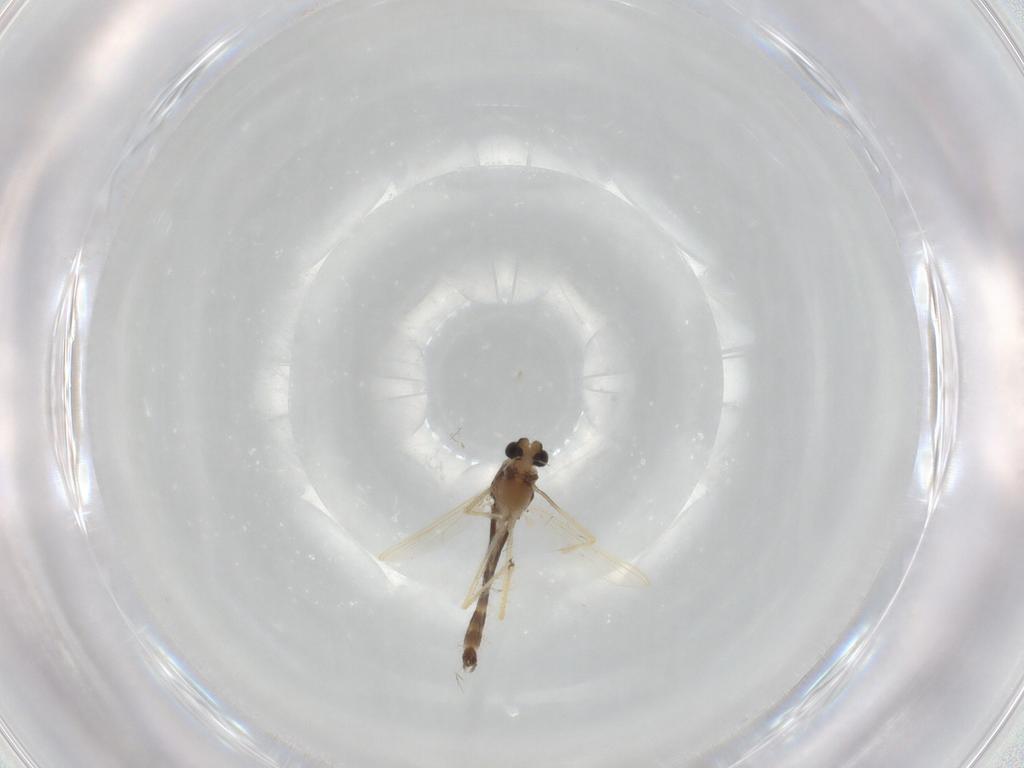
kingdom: Animalia
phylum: Arthropoda
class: Insecta
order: Diptera
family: Chironomidae
